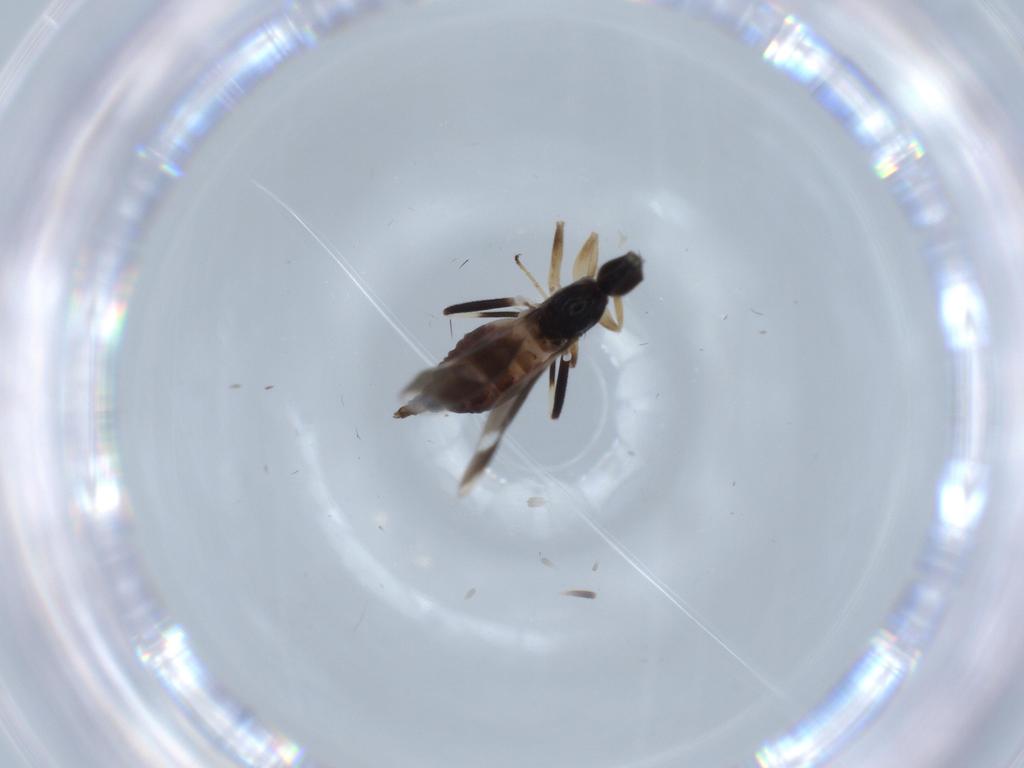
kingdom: Animalia
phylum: Arthropoda
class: Insecta
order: Diptera
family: Hybotidae
